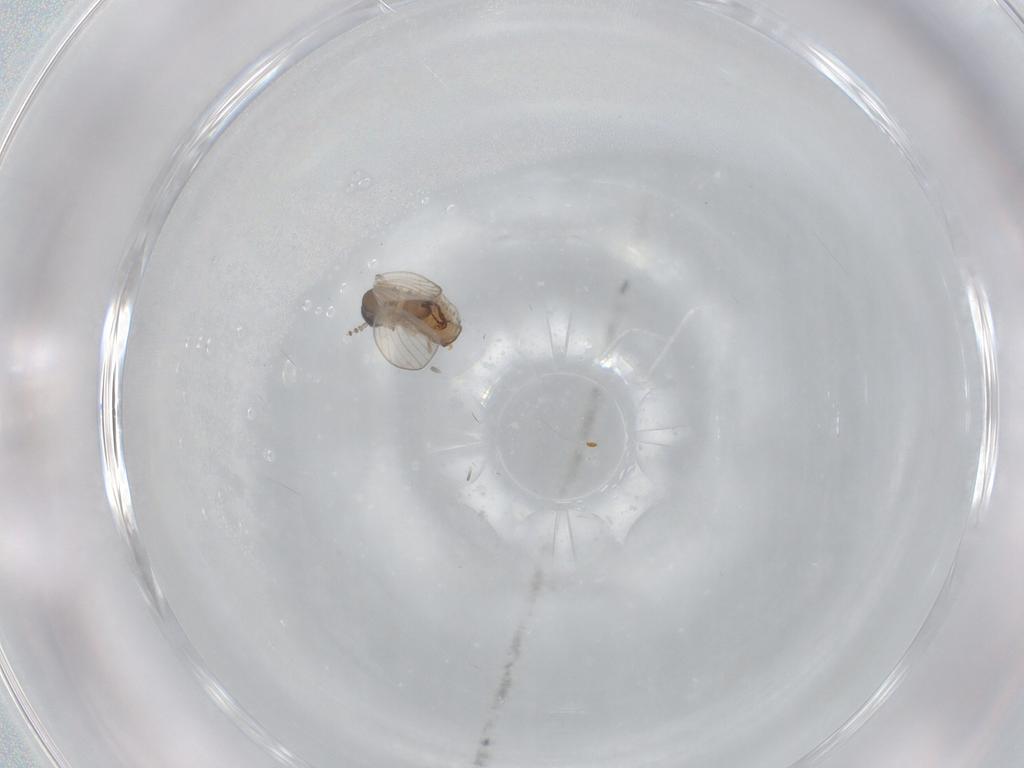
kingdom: Animalia
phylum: Arthropoda
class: Insecta
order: Diptera
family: Psychodidae
